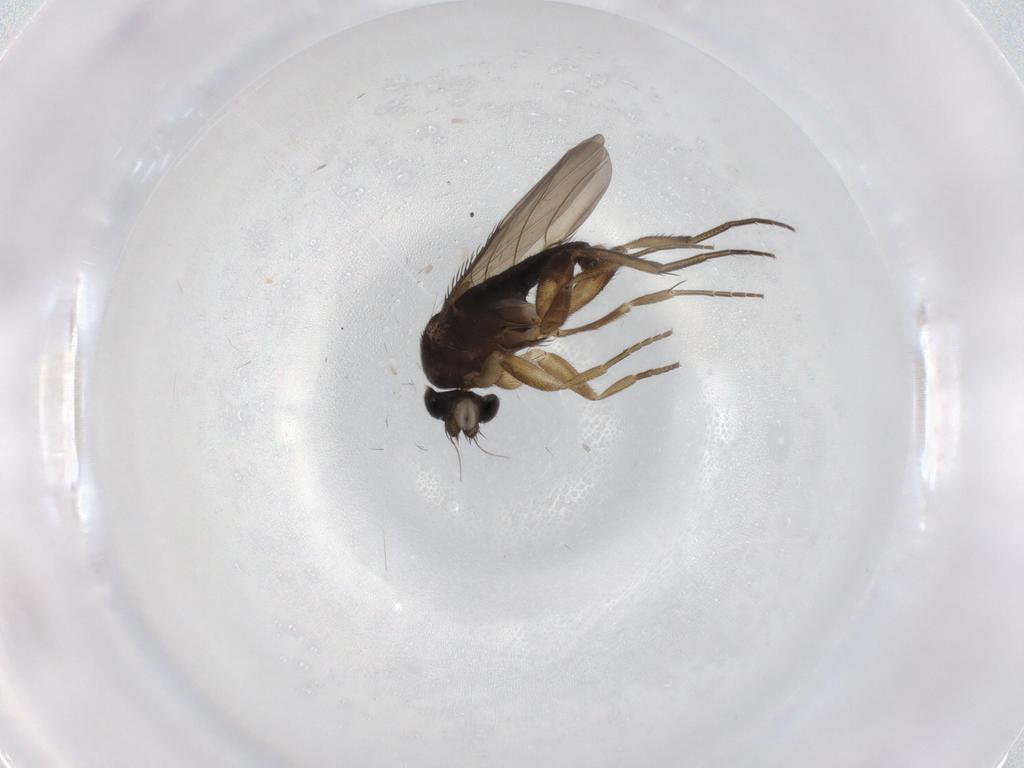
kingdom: Animalia
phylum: Arthropoda
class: Insecta
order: Diptera
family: Phoridae
